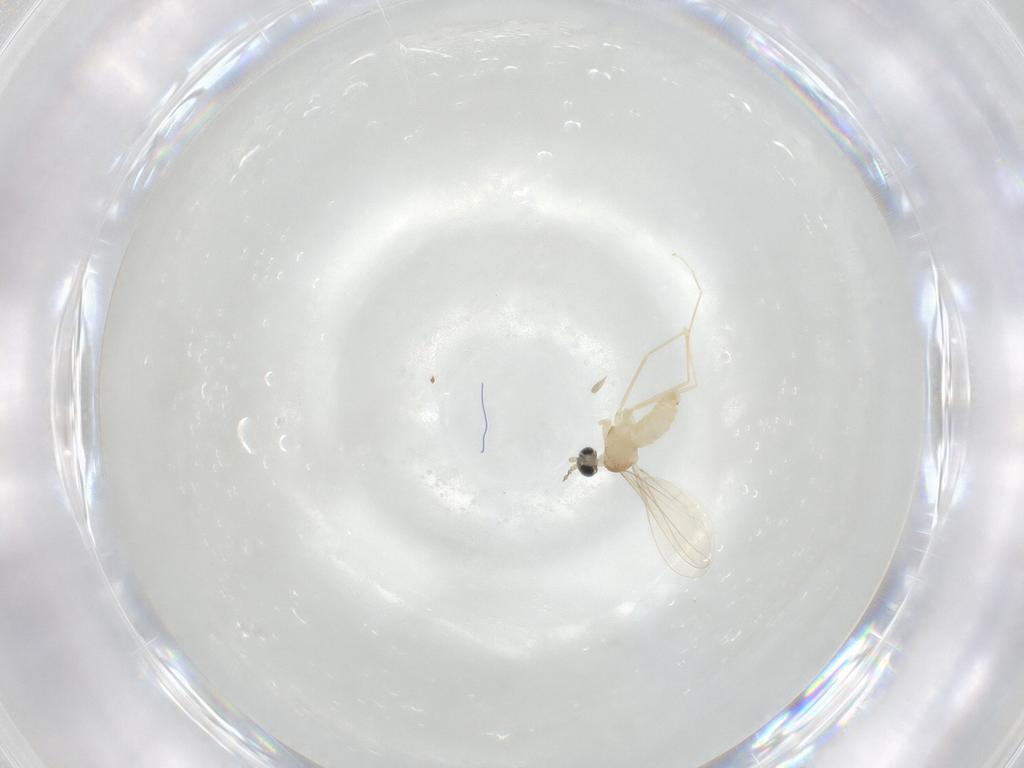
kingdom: Animalia
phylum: Arthropoda
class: Insecta
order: Diptera
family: Cecidomyiidae
